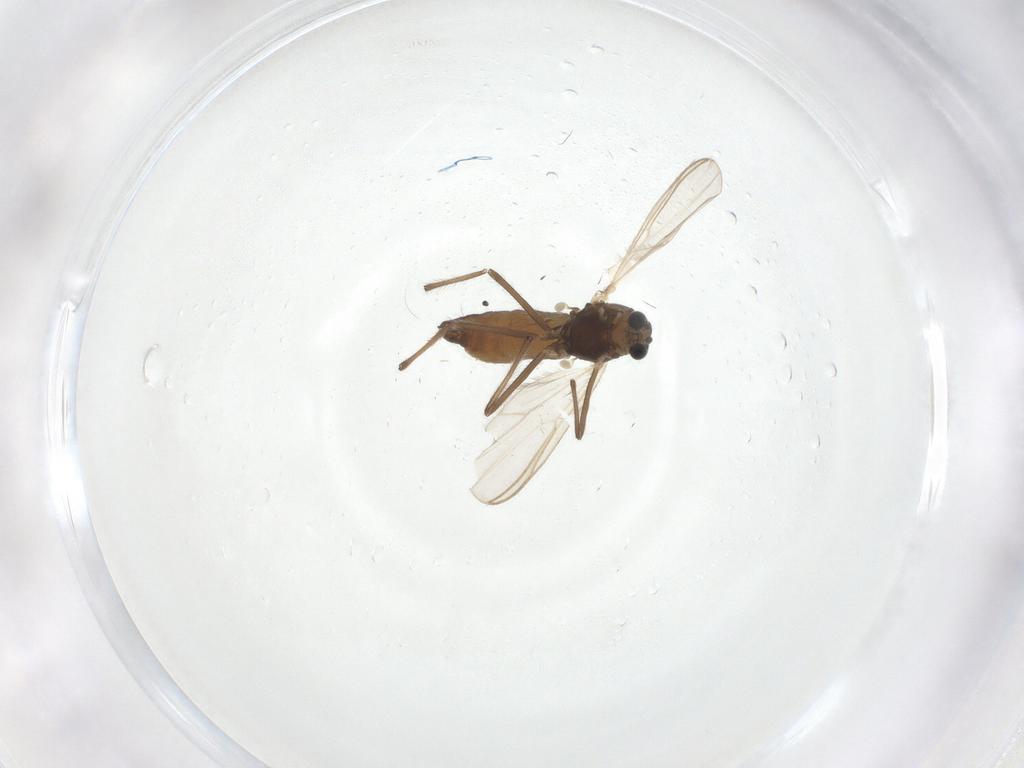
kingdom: Animalia
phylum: Arthropoda
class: Insecta
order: Diptera
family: Chironomidae
